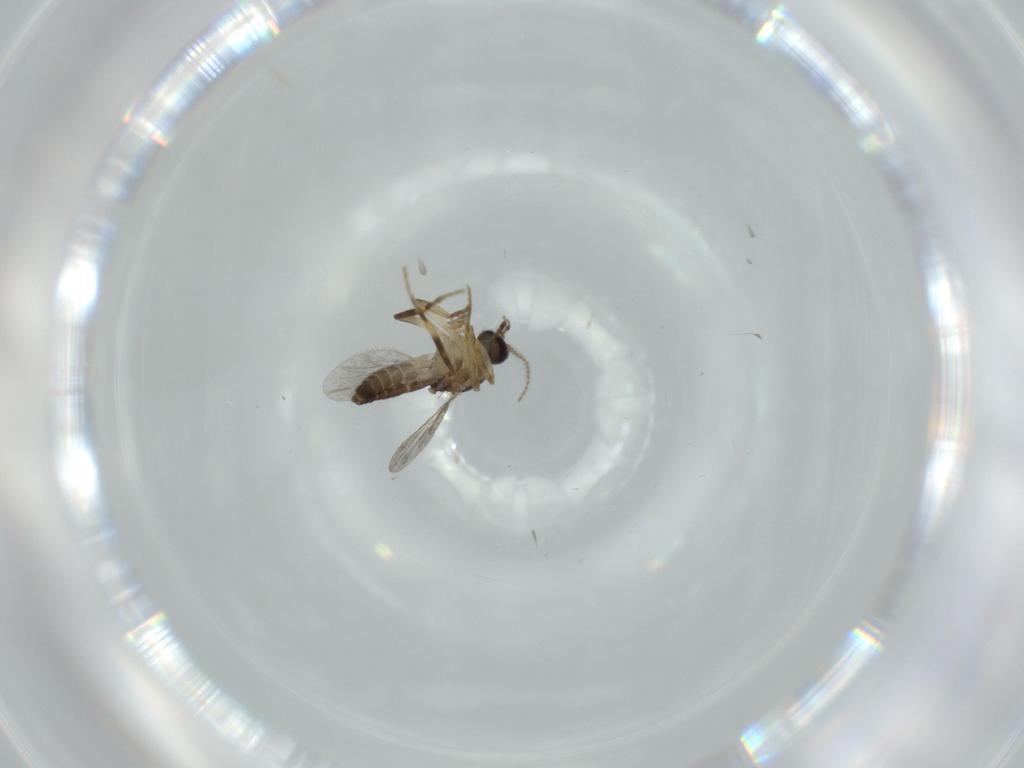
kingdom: Animalia
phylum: Arthropoda
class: Insecta
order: Diptera
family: Ceratopogonidae
